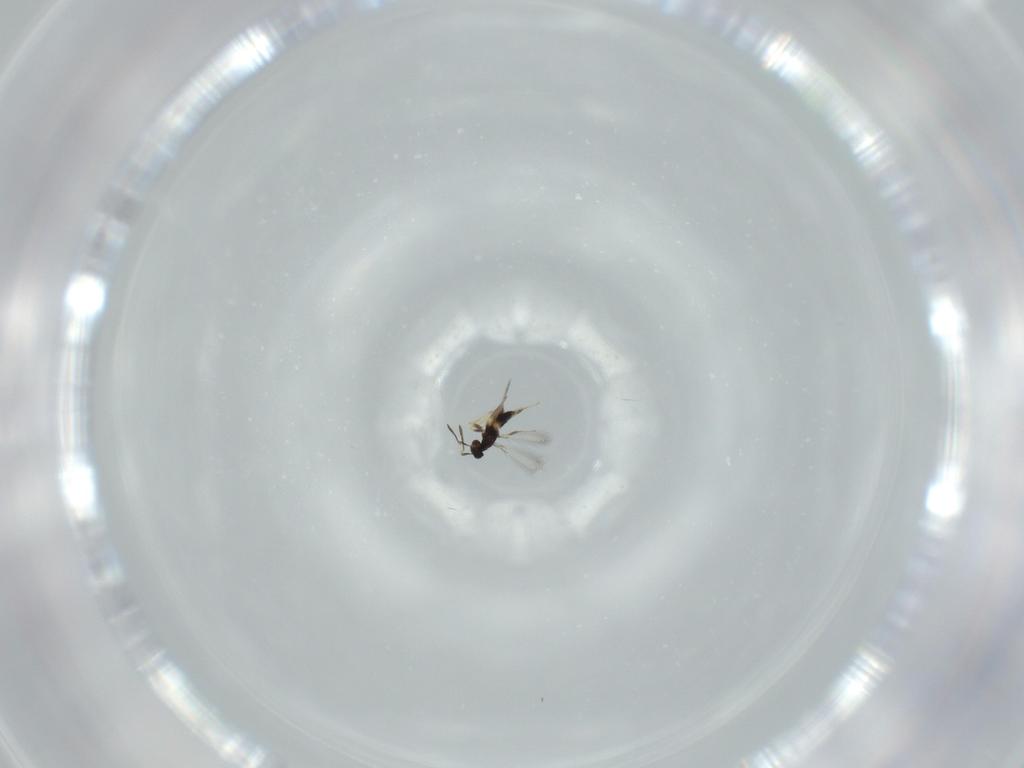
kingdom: Animalia
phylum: Arthropoda
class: Insecta
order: Hymenoptera
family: Mymaridae
